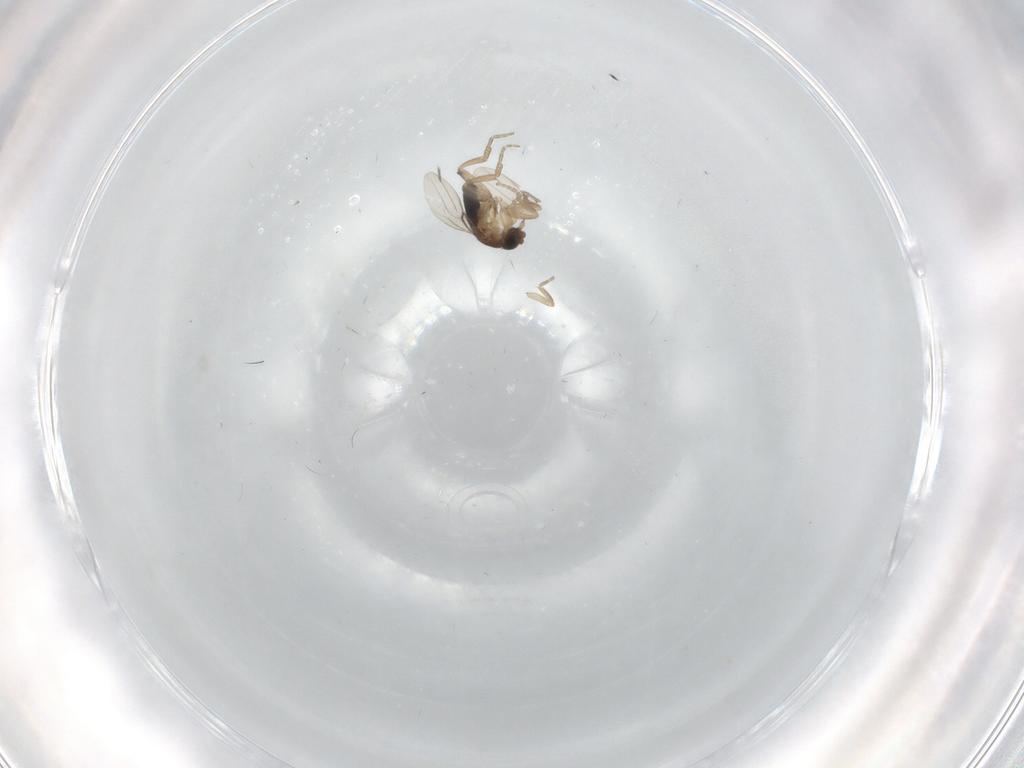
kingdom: Animalia
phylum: Arthropoda
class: Insecta
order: Diptera
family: Phoridae
